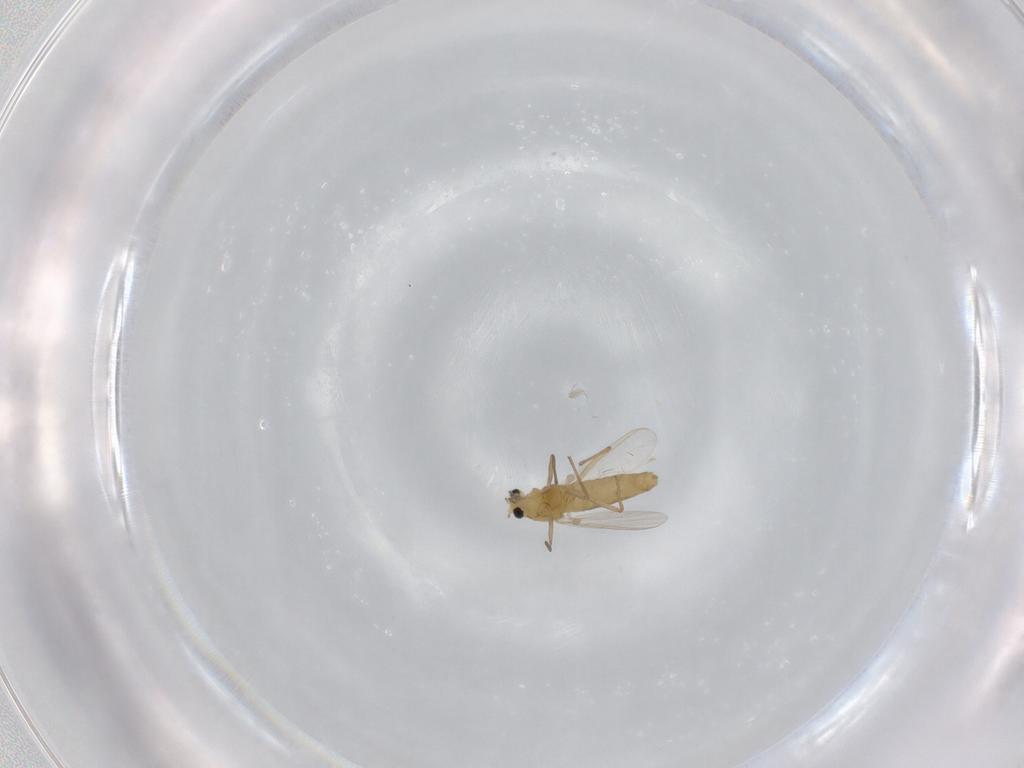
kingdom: Animalia
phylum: Arthropoda
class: Insecta
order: Diptera
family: Chironomidae
